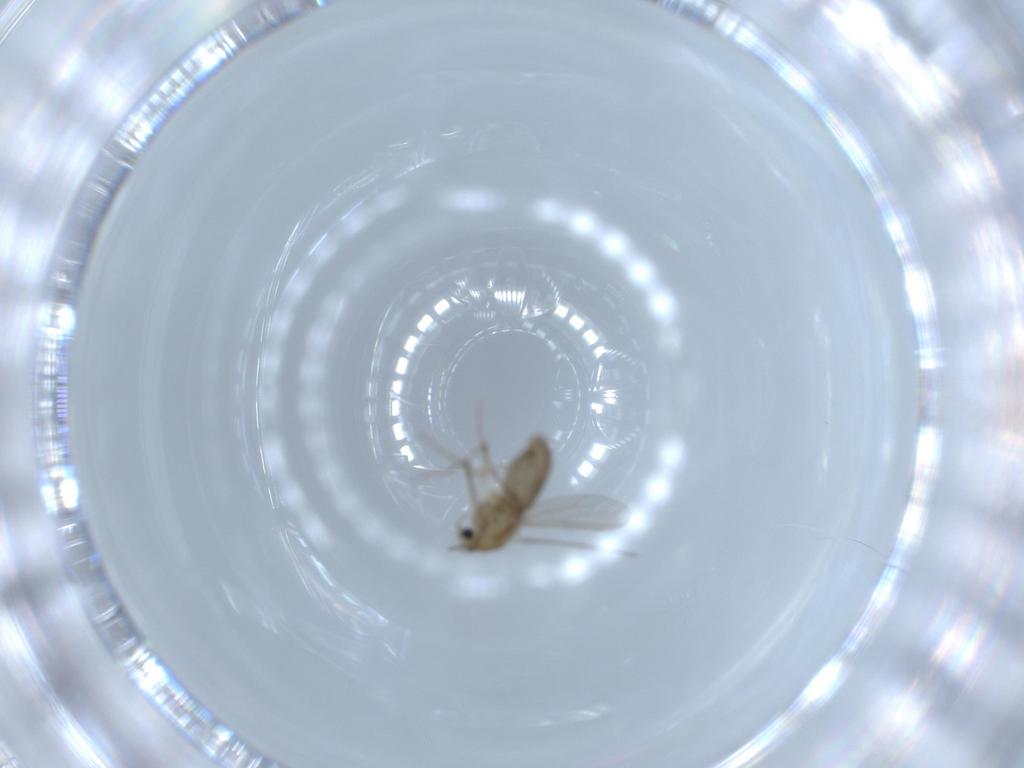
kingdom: Animalia
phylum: Arthropoda
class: Insecta
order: Diptera
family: Chironomidae
